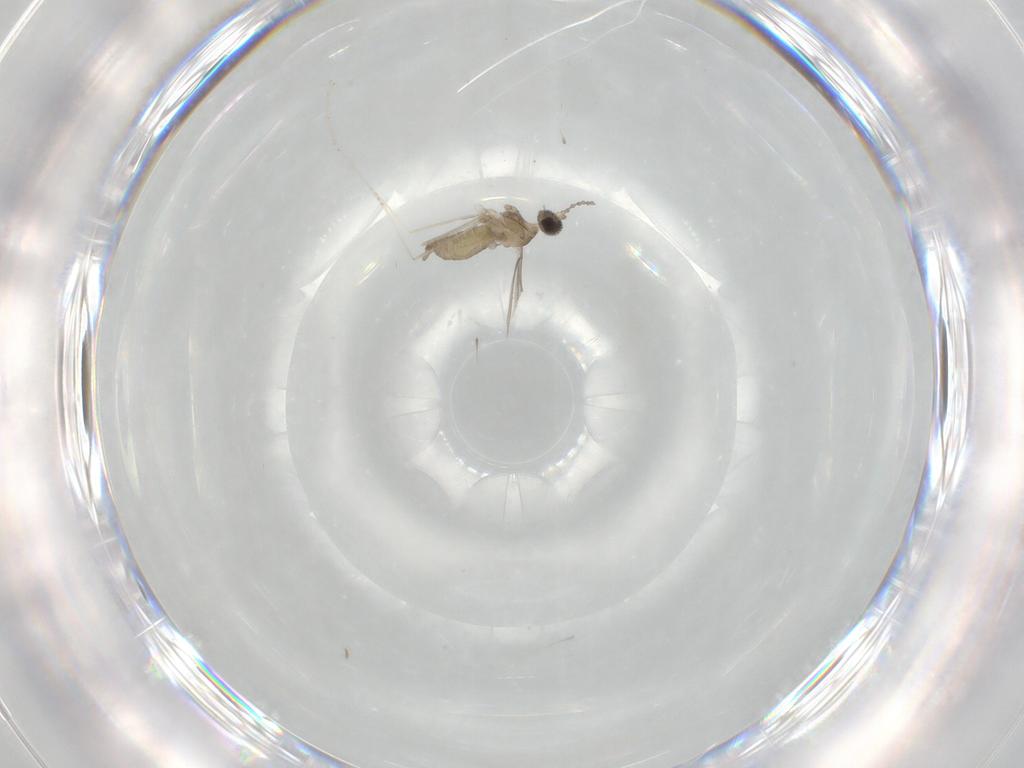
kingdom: Animalia
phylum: Arthropoda
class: Insecta
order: Diptera
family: Cecidomyiidae
